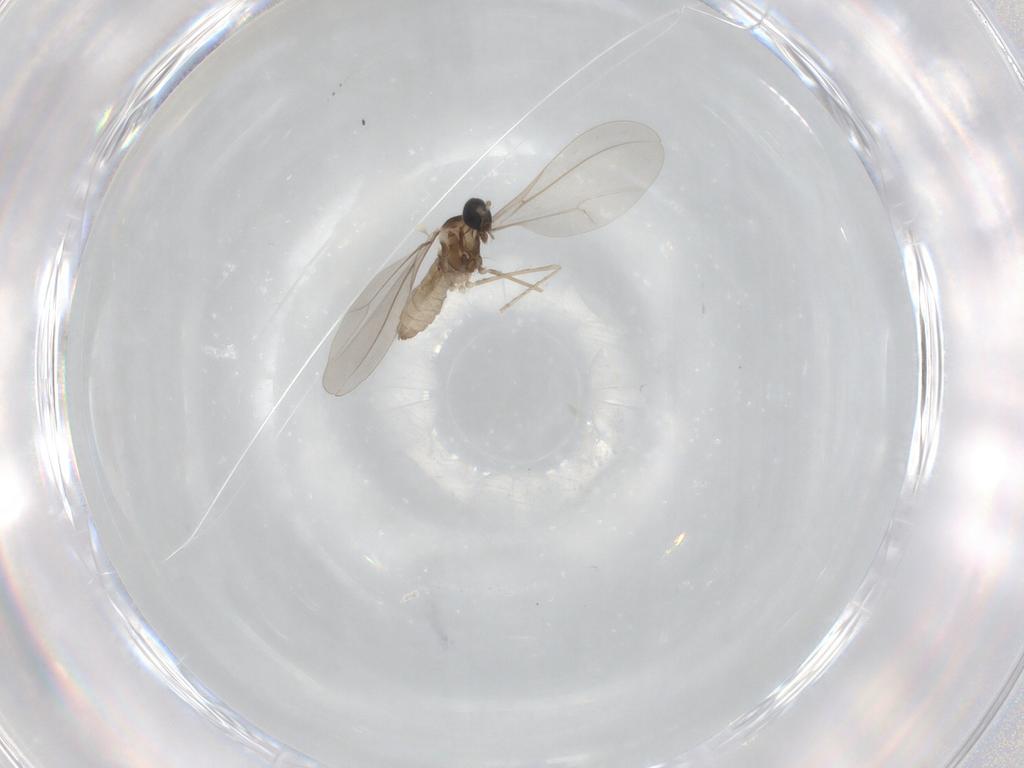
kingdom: Animalia
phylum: Arthropoda
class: Insecta
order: Diptera
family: Cecidomyiidae
